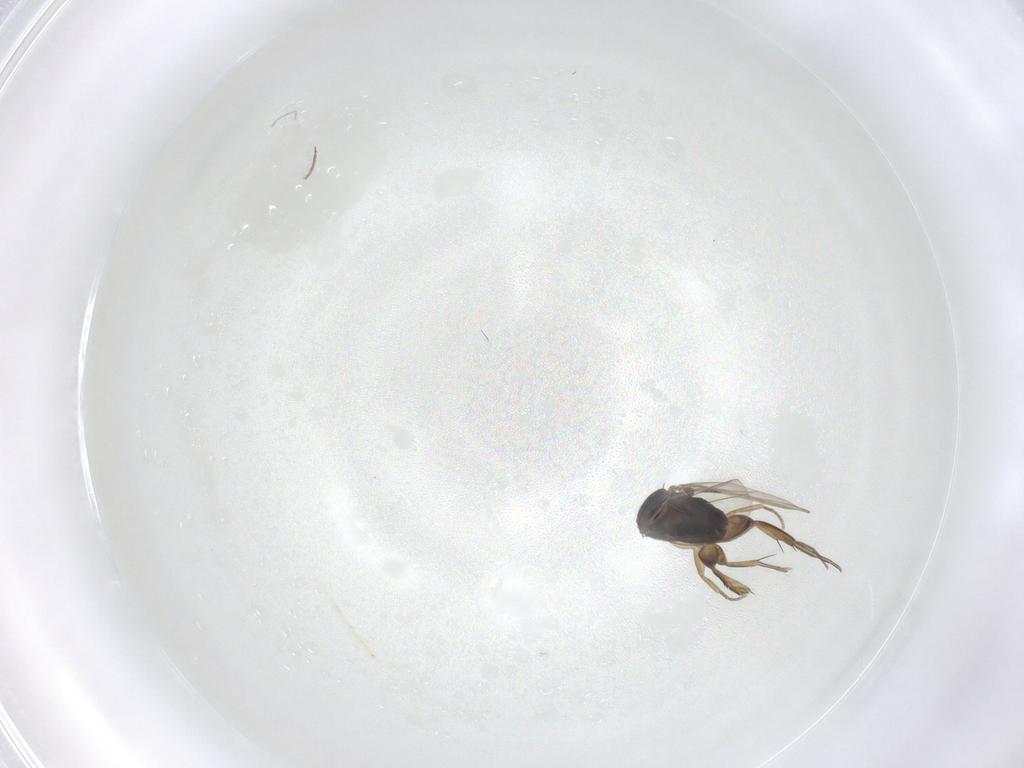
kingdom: Animalia
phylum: Arthropoda
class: Insecta
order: Diptera
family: Phoridae
